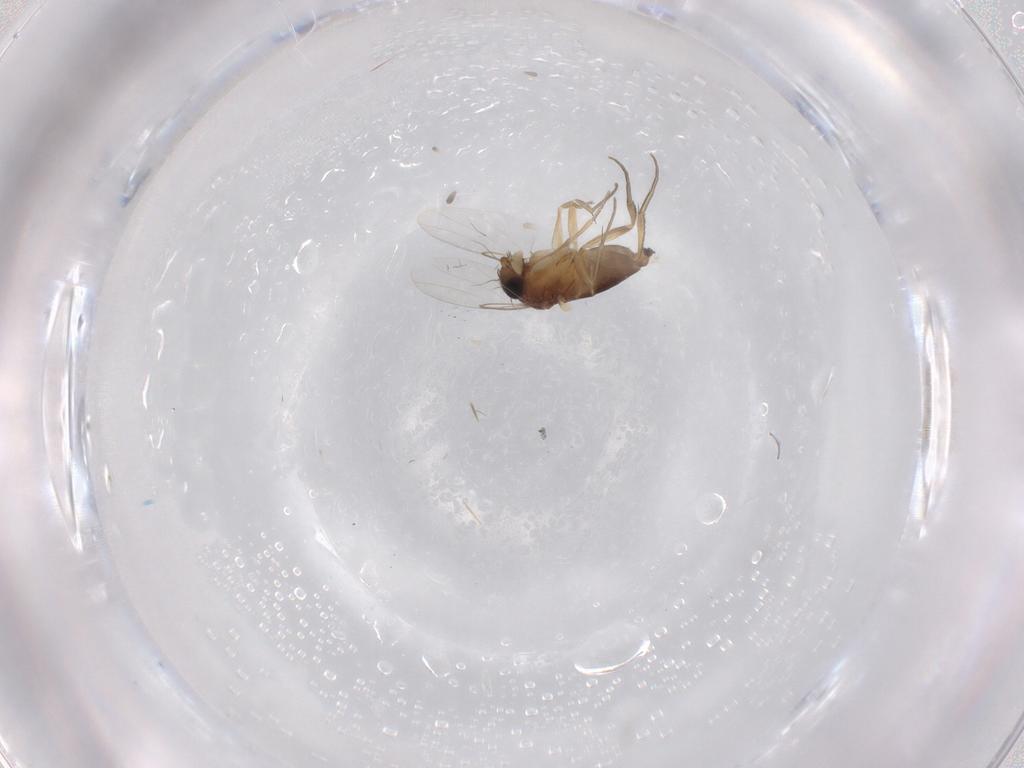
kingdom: Animalia
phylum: Arthropoda
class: Insecta
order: Diptera
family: Phoridae
